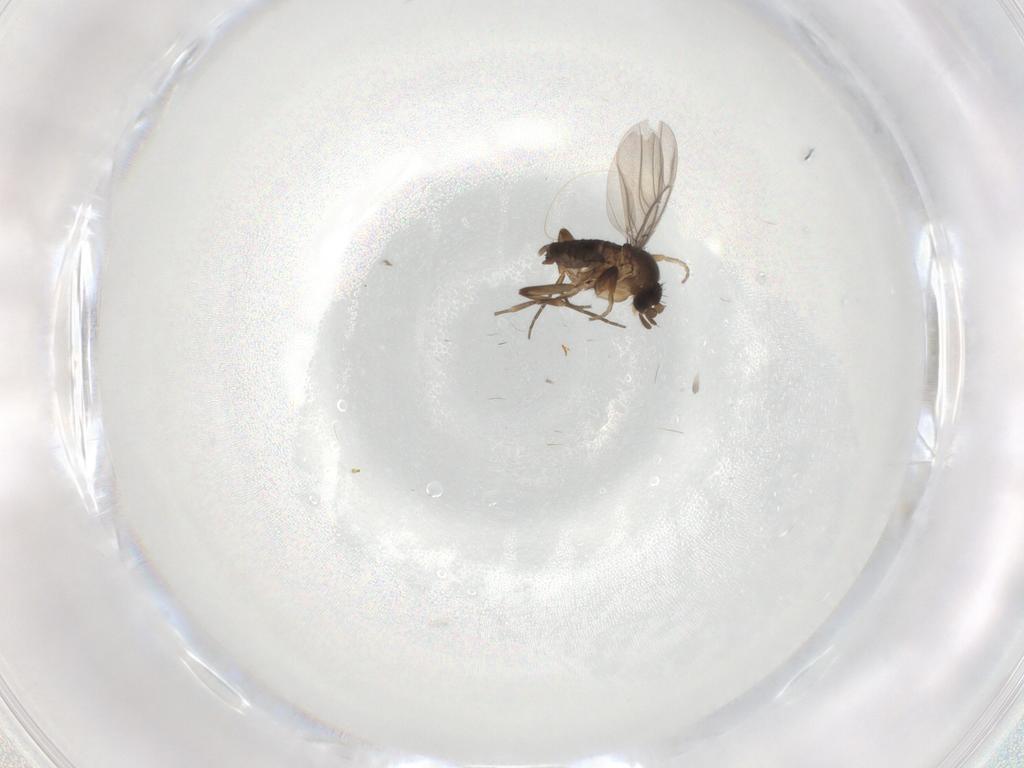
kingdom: Animalia
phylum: Arthropoda
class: Insecta
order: Diptera
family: Phoridae
